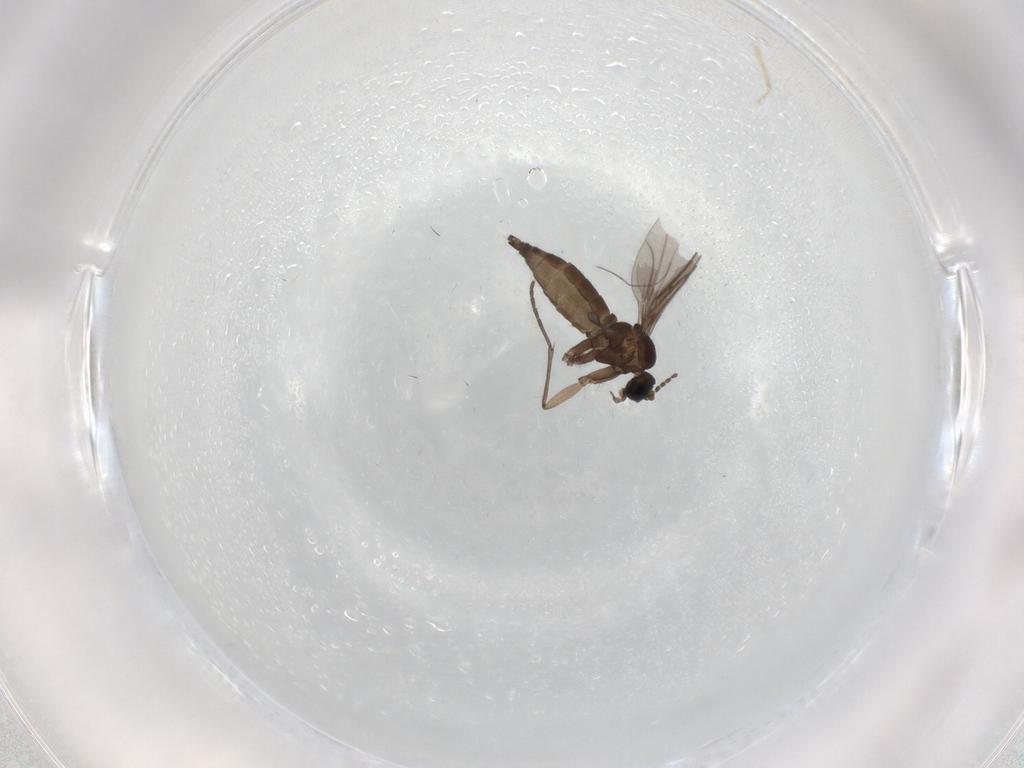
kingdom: Animalia
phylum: Arthropoda
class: Insecta
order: Diptera
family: Sciaridae
